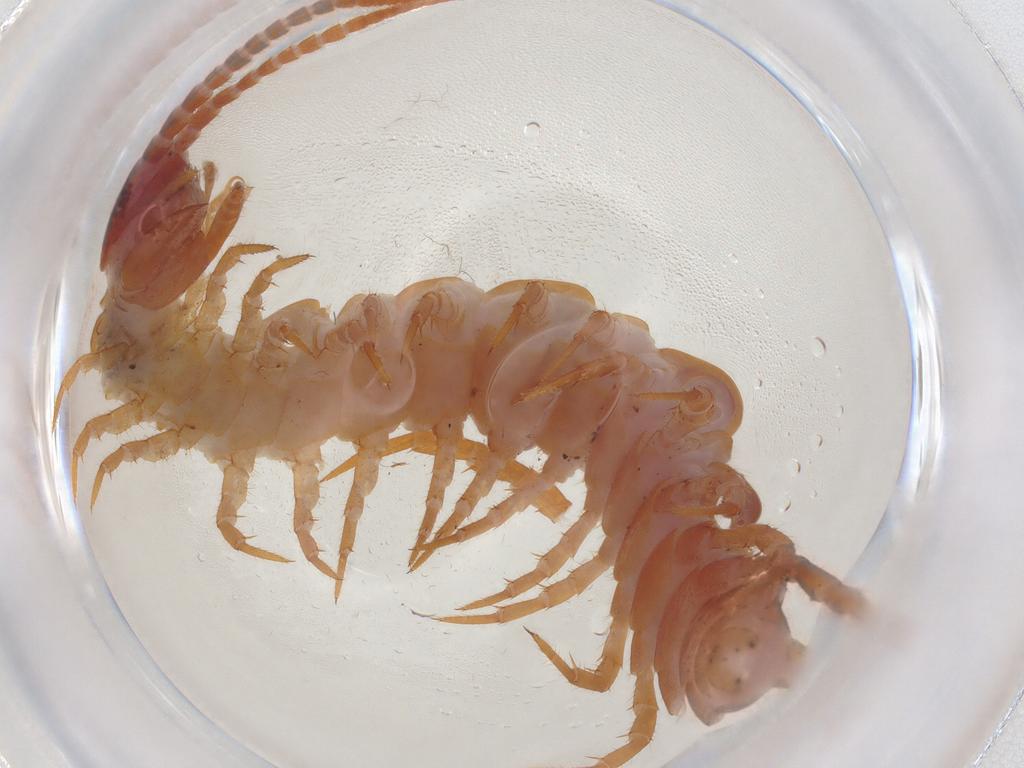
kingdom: Animalia
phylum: Arthropoda
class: Chilopoda
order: Lithobiomorpha
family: Lithobiidae
